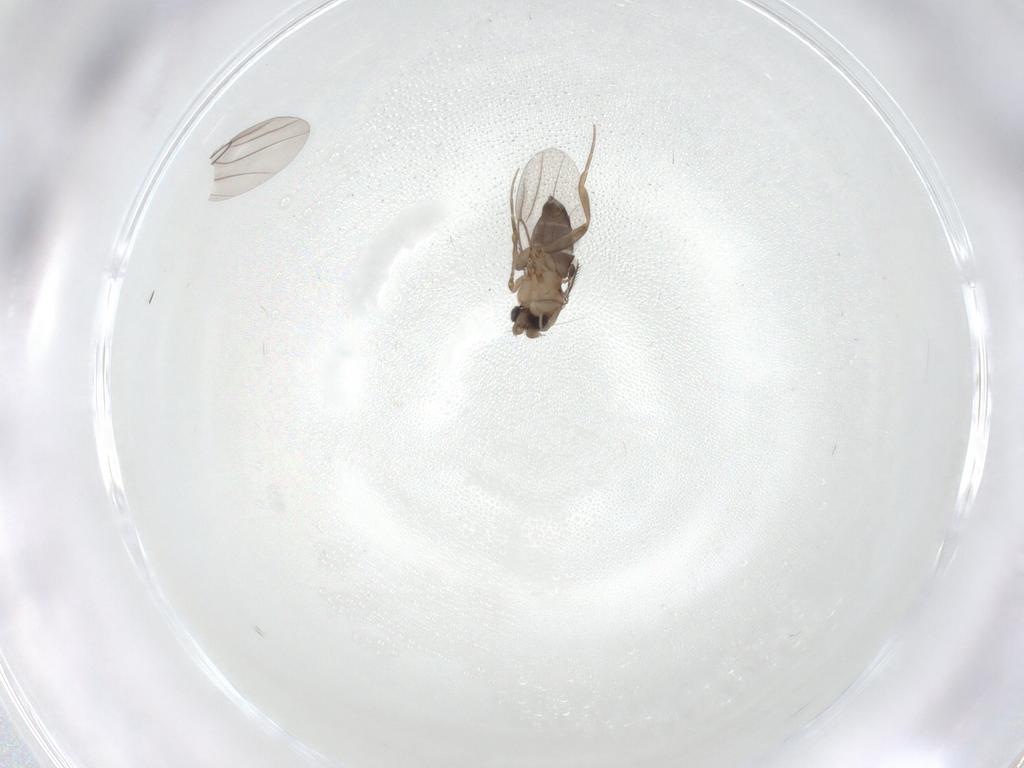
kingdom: Animalia
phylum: Arthropoda
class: Insecta
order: Diptera
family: Phoridae
